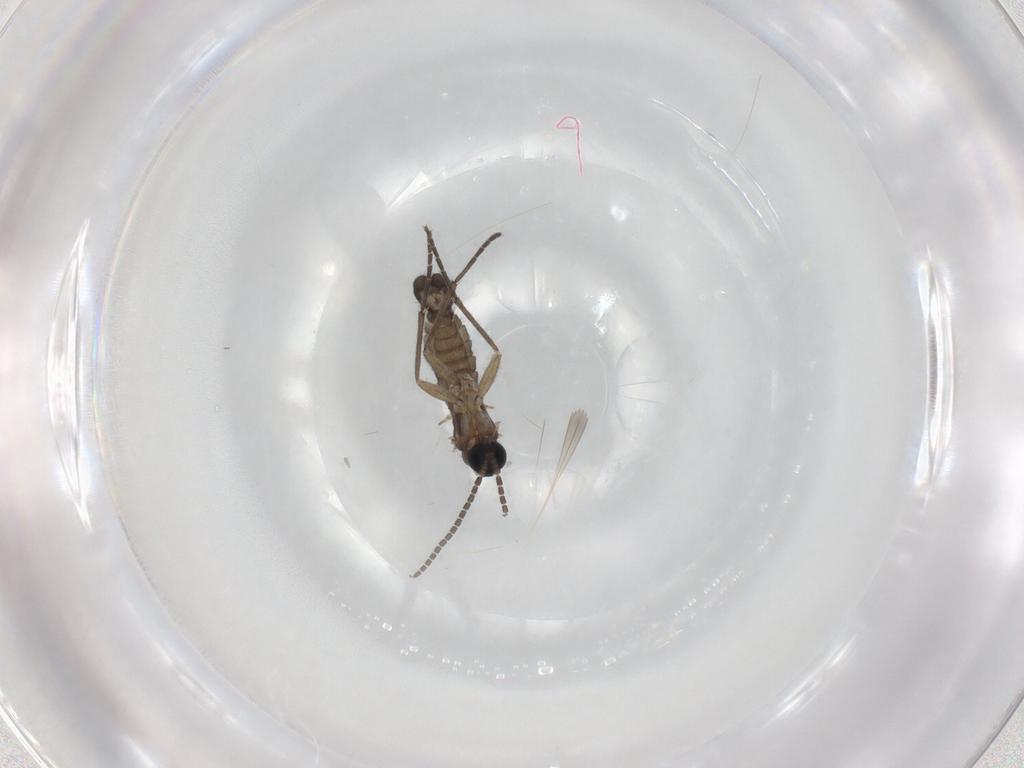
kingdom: Animalia
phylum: Arthropoda
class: Insecta
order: Diptera
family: Sciaridae
